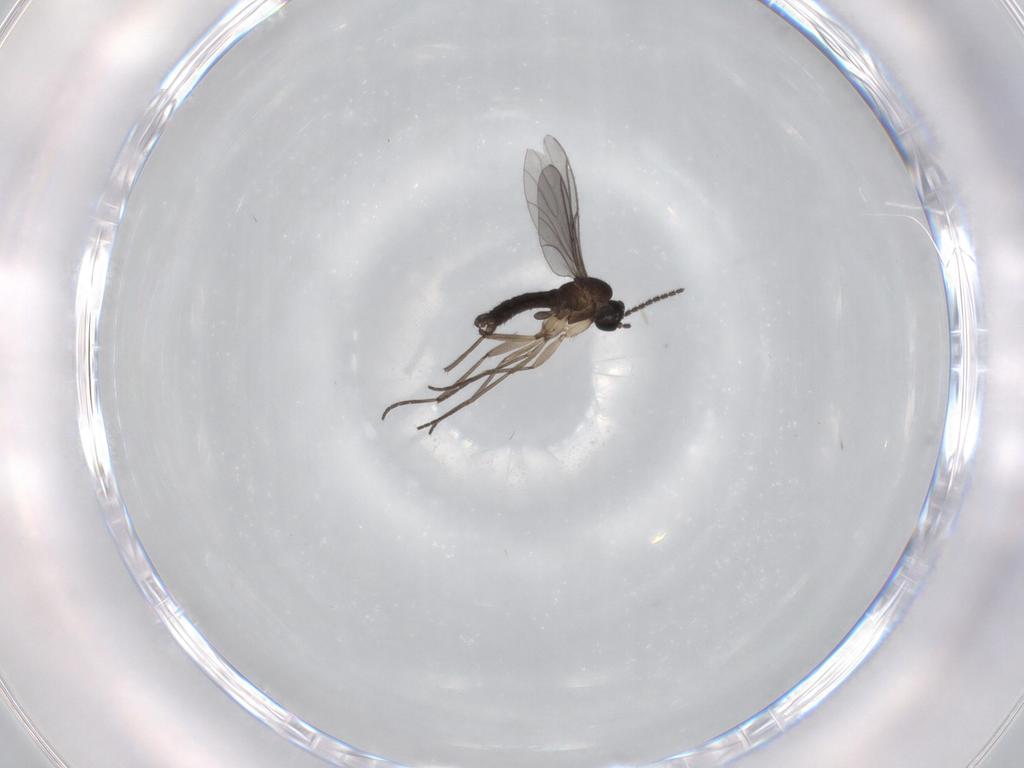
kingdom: Animalia
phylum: Arthropoda
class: Insecta
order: Diptera
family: Sciaridae
